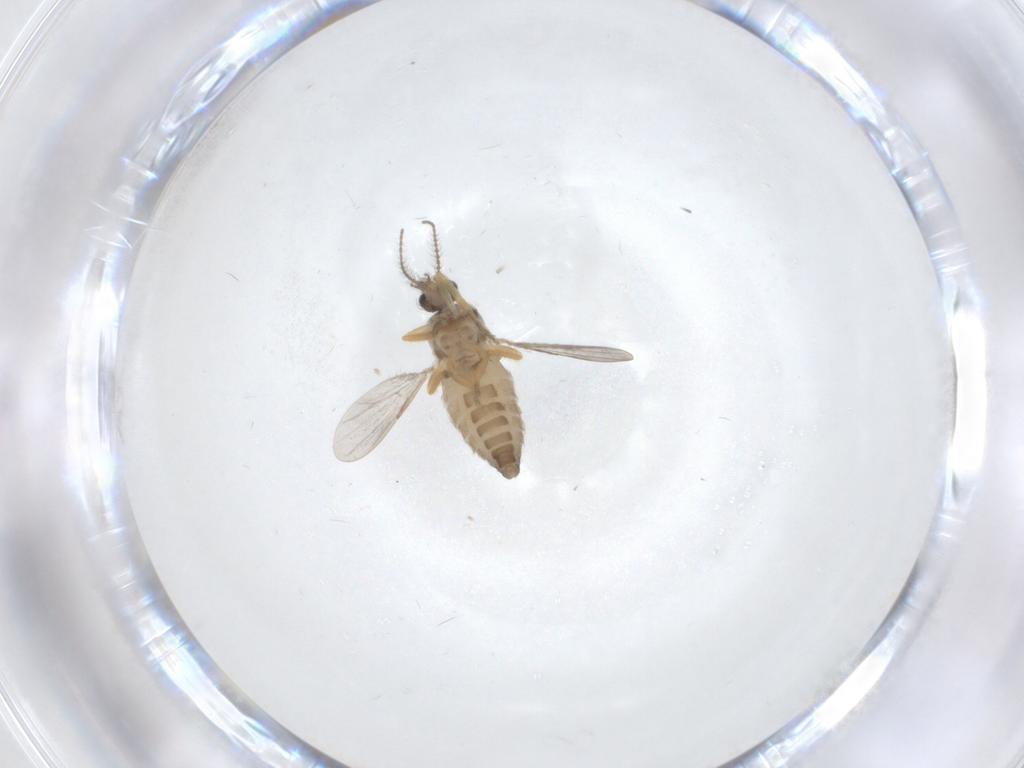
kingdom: Animalia
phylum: Arthropoda
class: Insecta
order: Diptera
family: Ceratopogonidae
